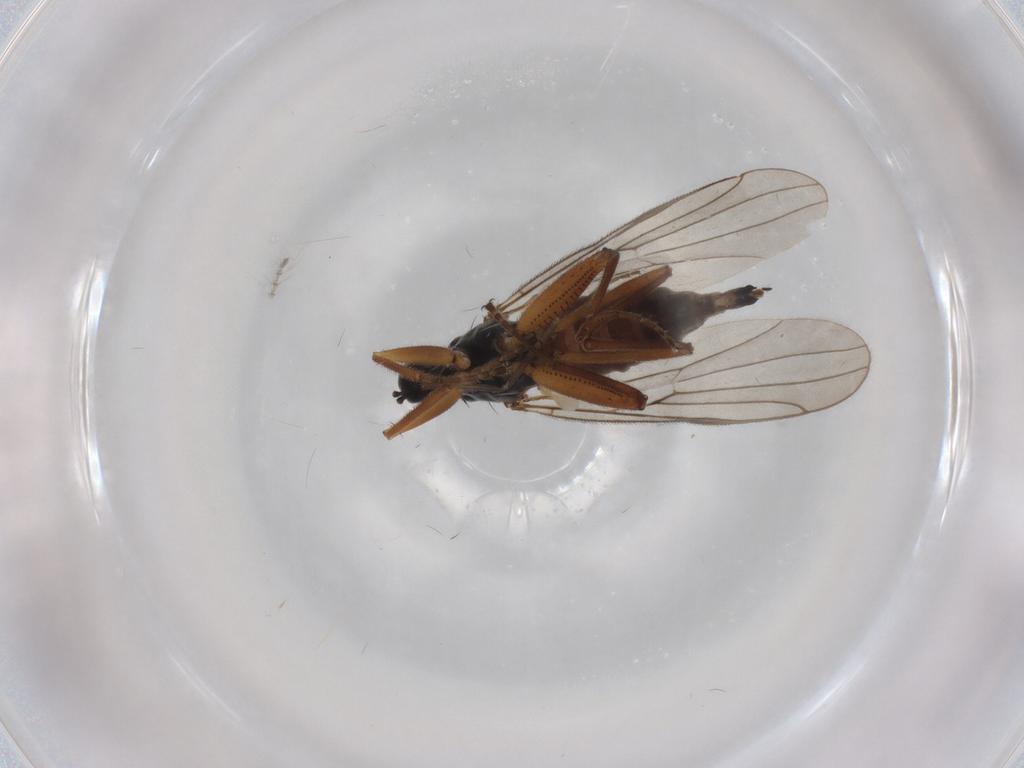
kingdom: Animalia
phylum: Arthropoda
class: Insecta
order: Diptera
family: Hybotidae
